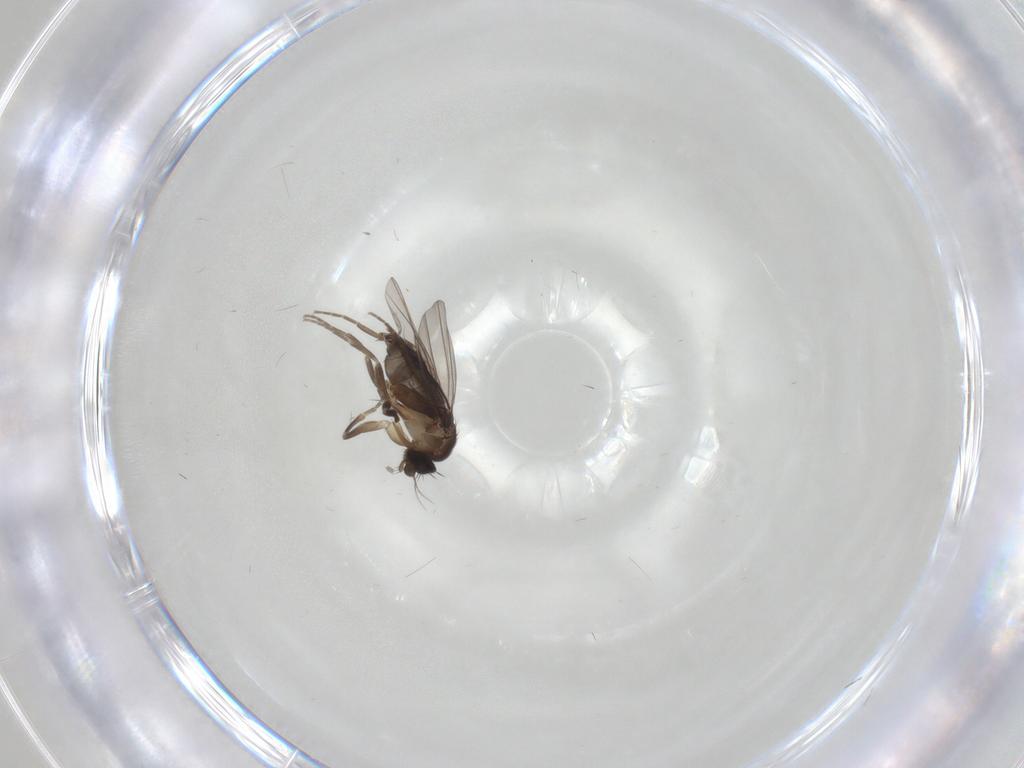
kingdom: Animalia
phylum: Arthropoda
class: Insecta
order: Diptera
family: Phoridae
